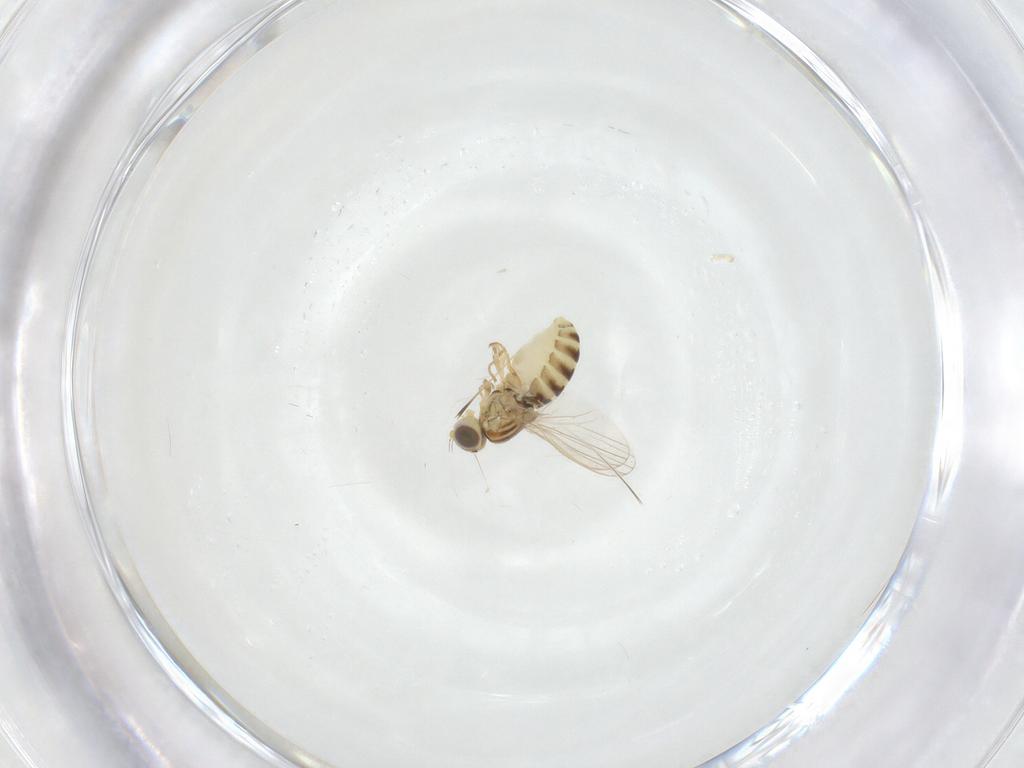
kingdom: Animalia
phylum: Arthropoda
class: Insecta
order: Diptera
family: Chyromyidae
